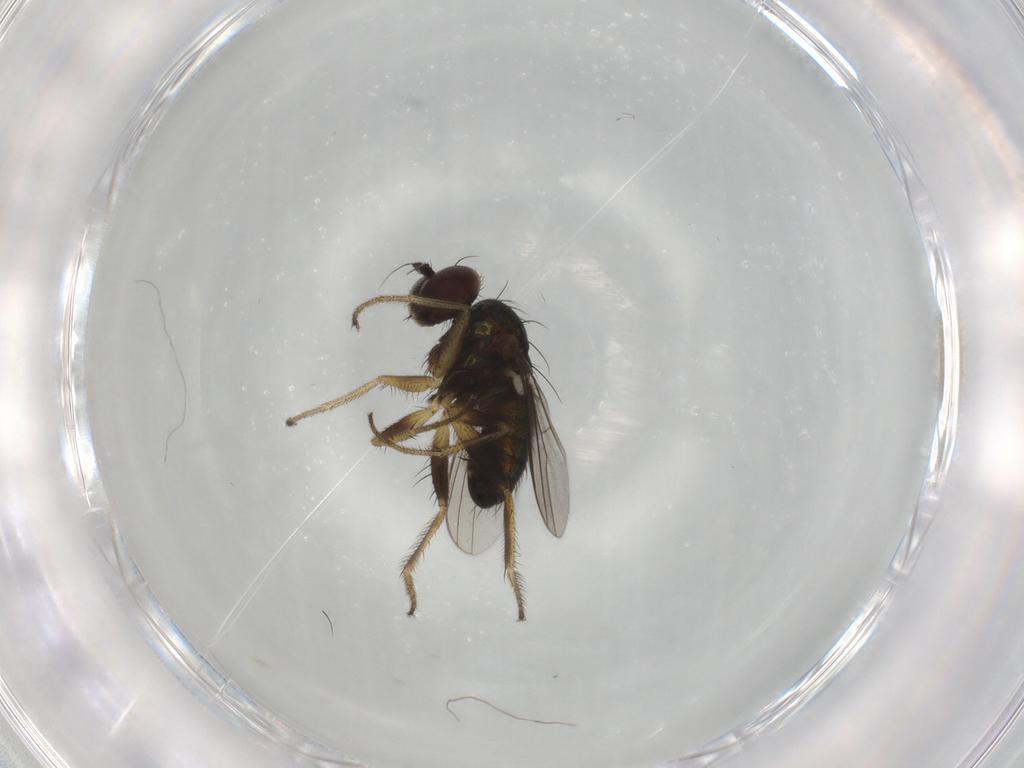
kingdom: Animalia
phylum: Arthropoda
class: Insecta
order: Diptera
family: Dolichopodidae
